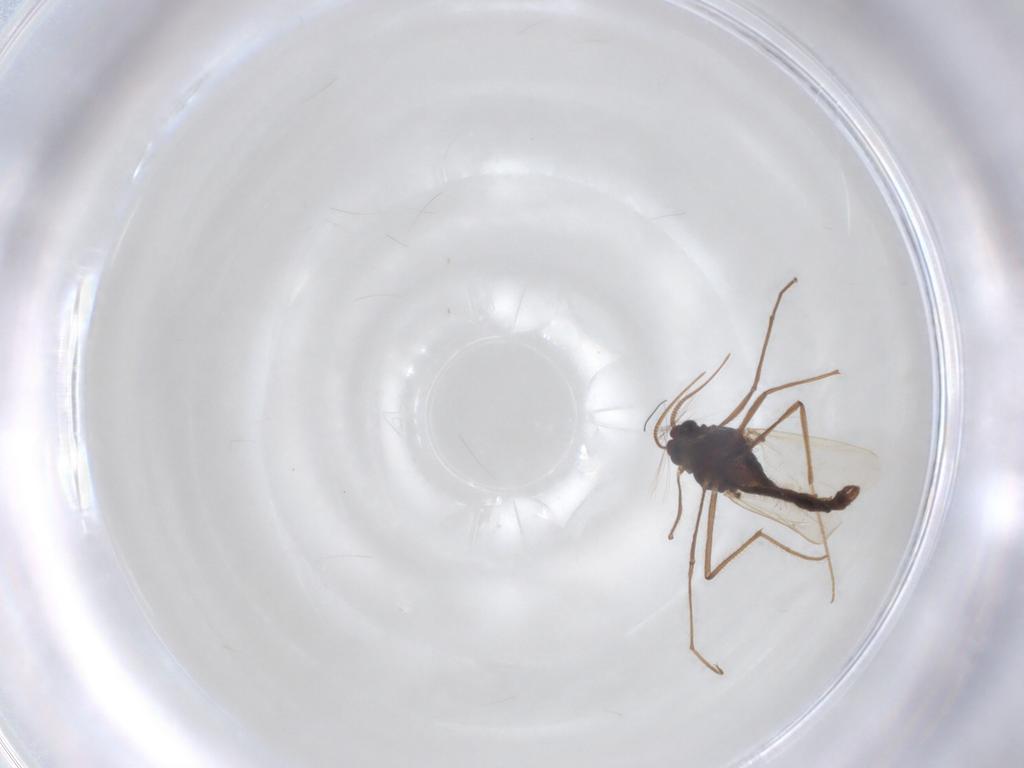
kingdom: Animalia
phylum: Arthropoda
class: Insecta
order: Diptera
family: Chironomidae
